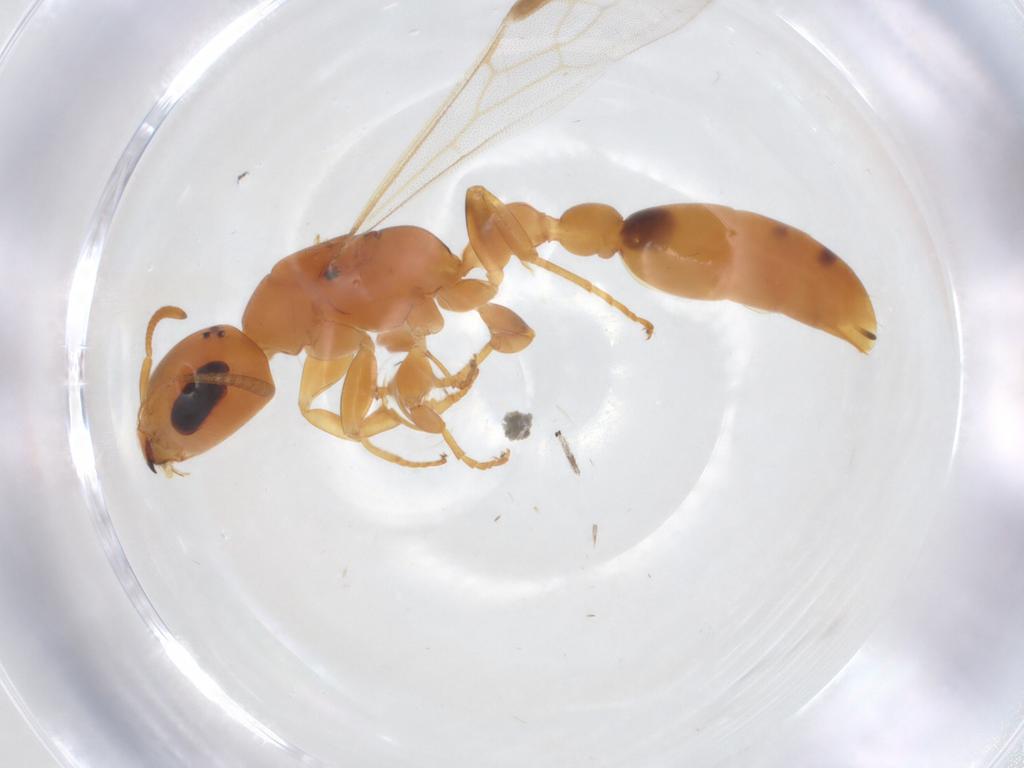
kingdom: Animalia
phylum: Arthropoda
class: Insecta
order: Hymenoptera
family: Formicidae
